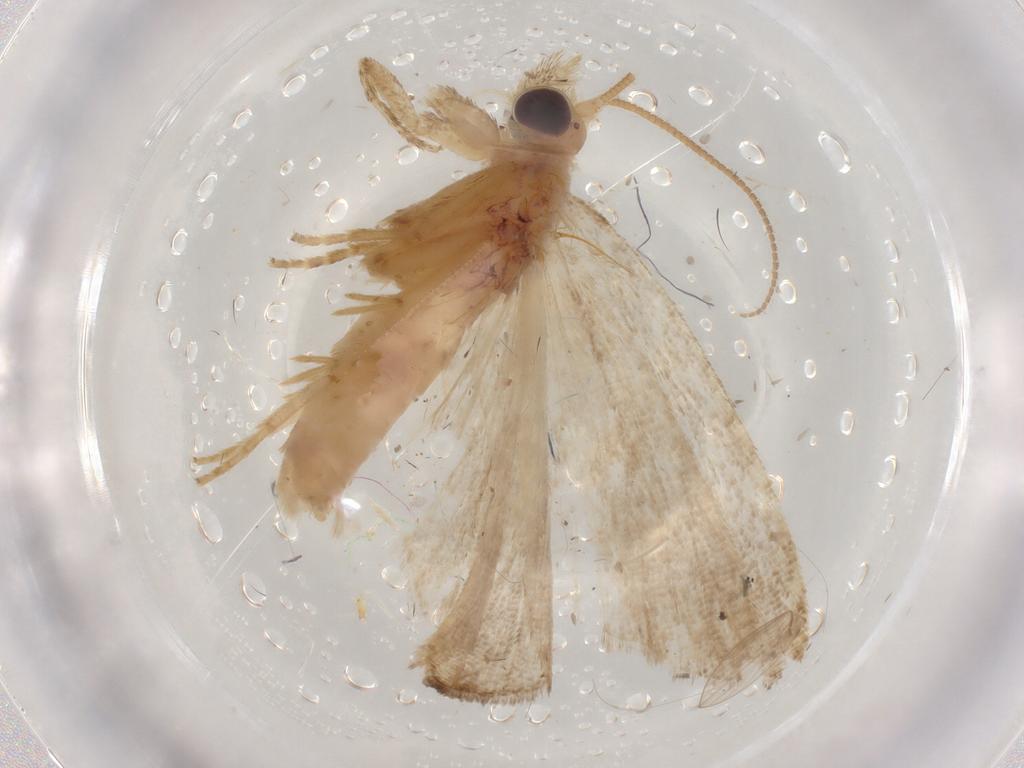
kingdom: Animalia
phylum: Arthropoda
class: Insecta
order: Lepidoptera
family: Tortricidae
